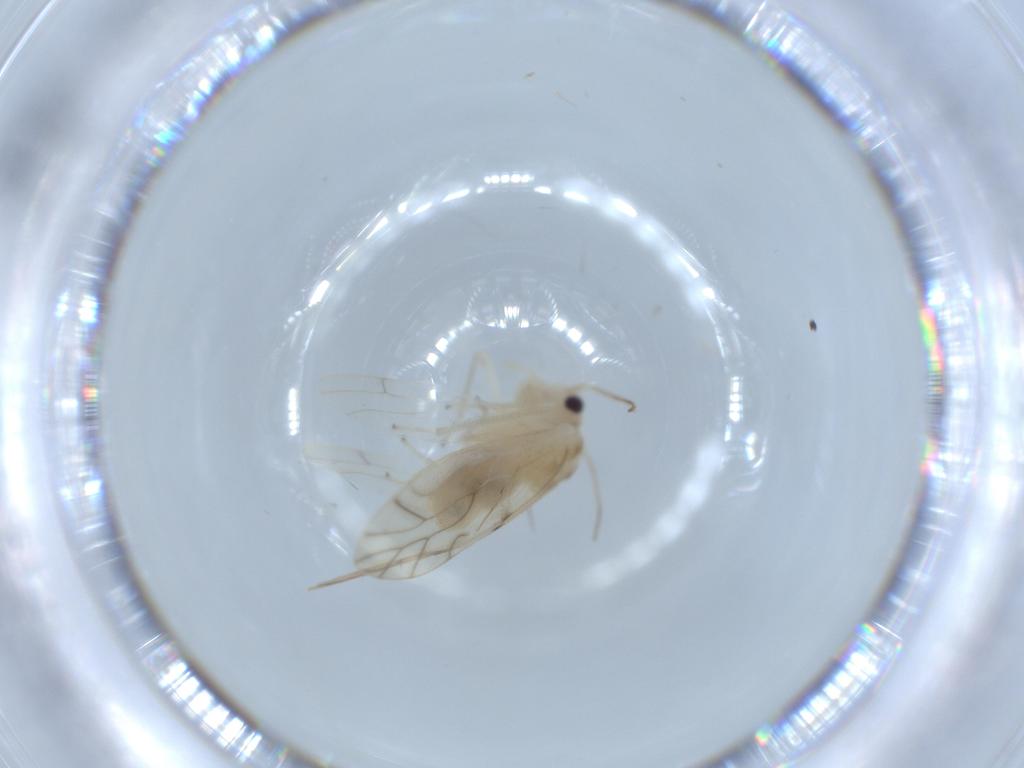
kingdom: Animalia
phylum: Arthropoda
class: Insecta
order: Psocodea
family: Caeciliusidae
